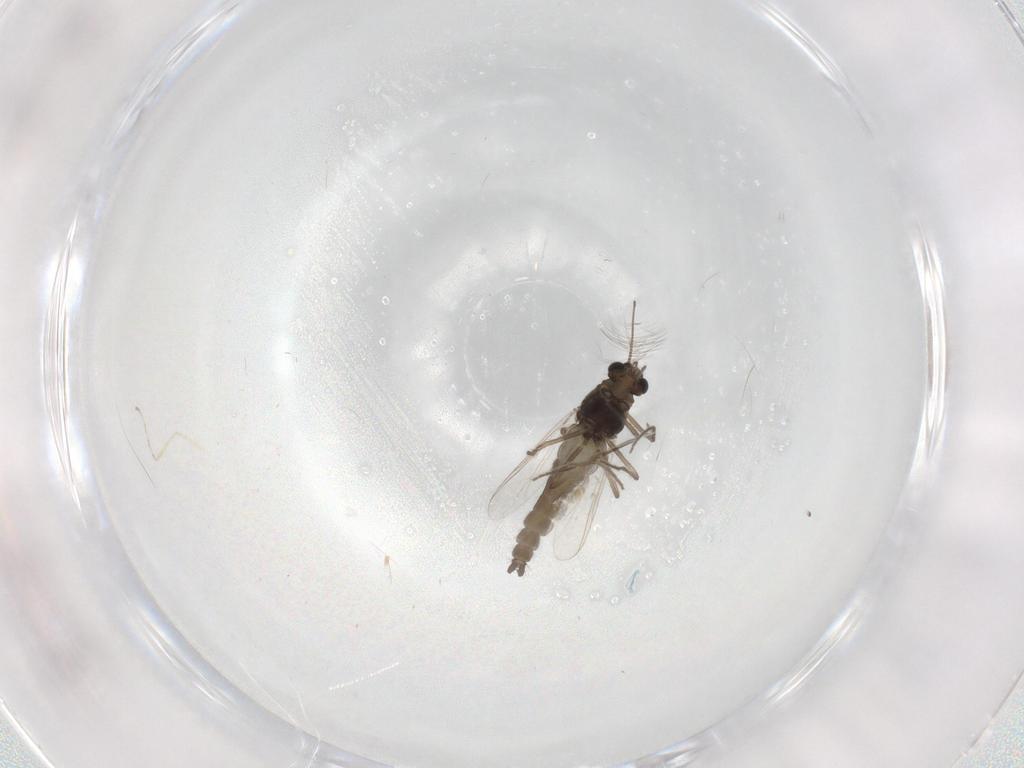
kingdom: Animalia
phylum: Arthropoda
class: Insecta
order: Diptera
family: Chironomidae
